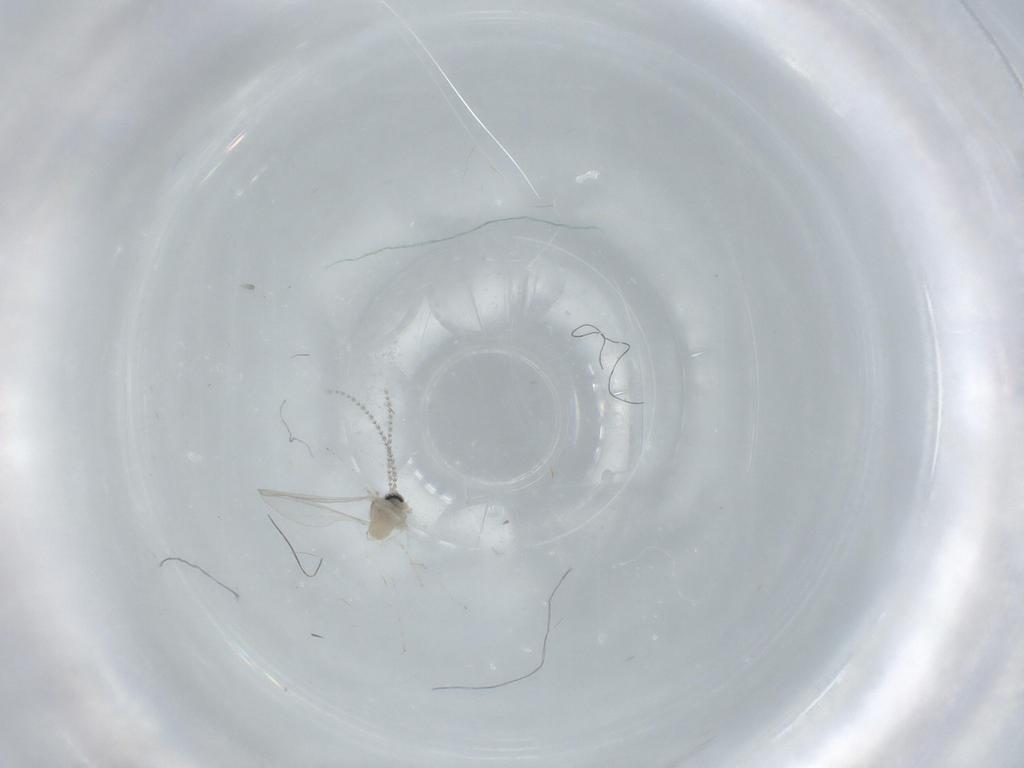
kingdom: Animalia
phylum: Arthropoda
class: Insecta
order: Diptera
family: Cecidomyiidae
